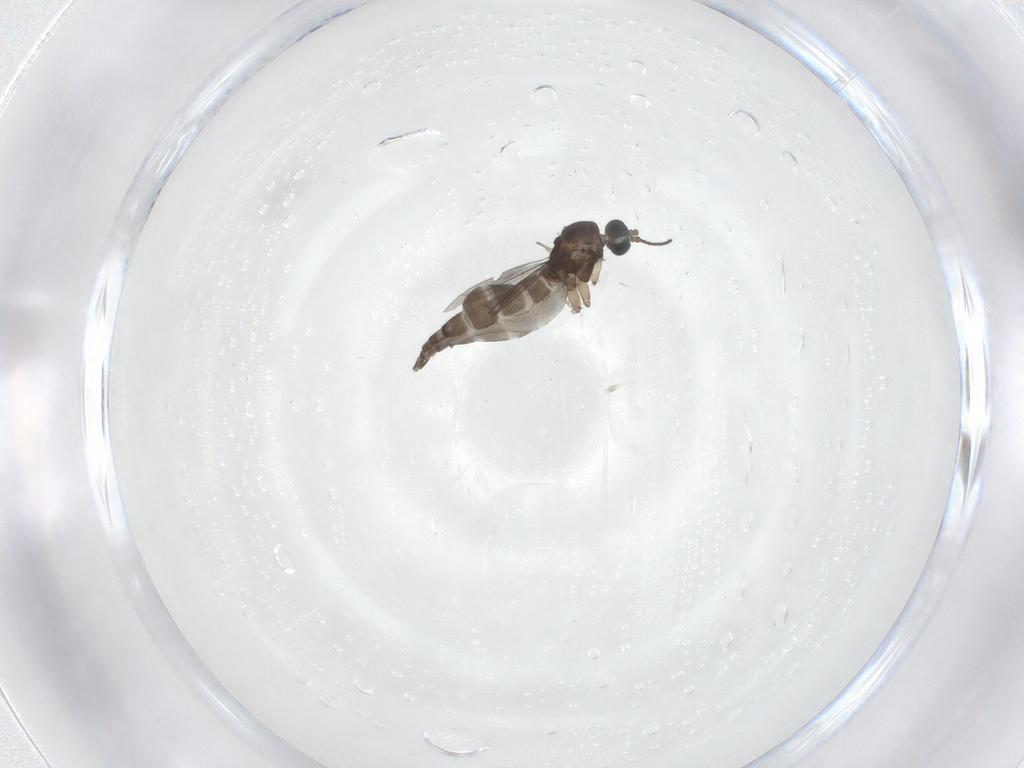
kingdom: Animalia
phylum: Arthropoda
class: Insecta
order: Diptera
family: Sciaridae
